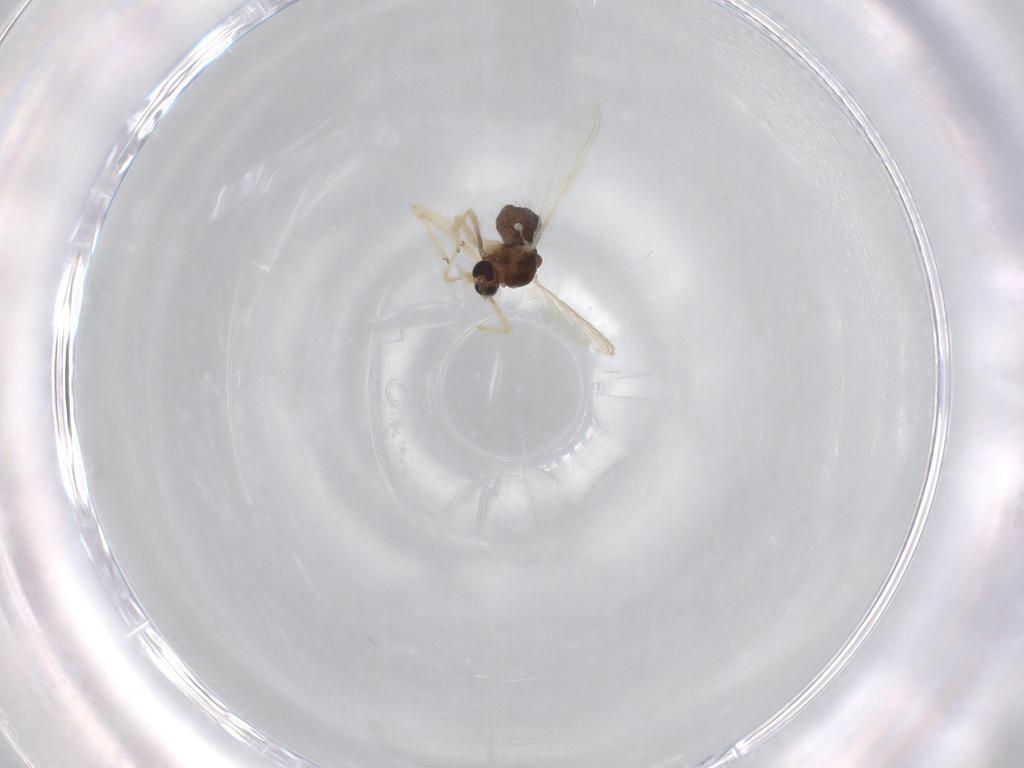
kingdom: Animalia
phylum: Arthropoda
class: Insecta
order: Diptera
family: Chironomidae
